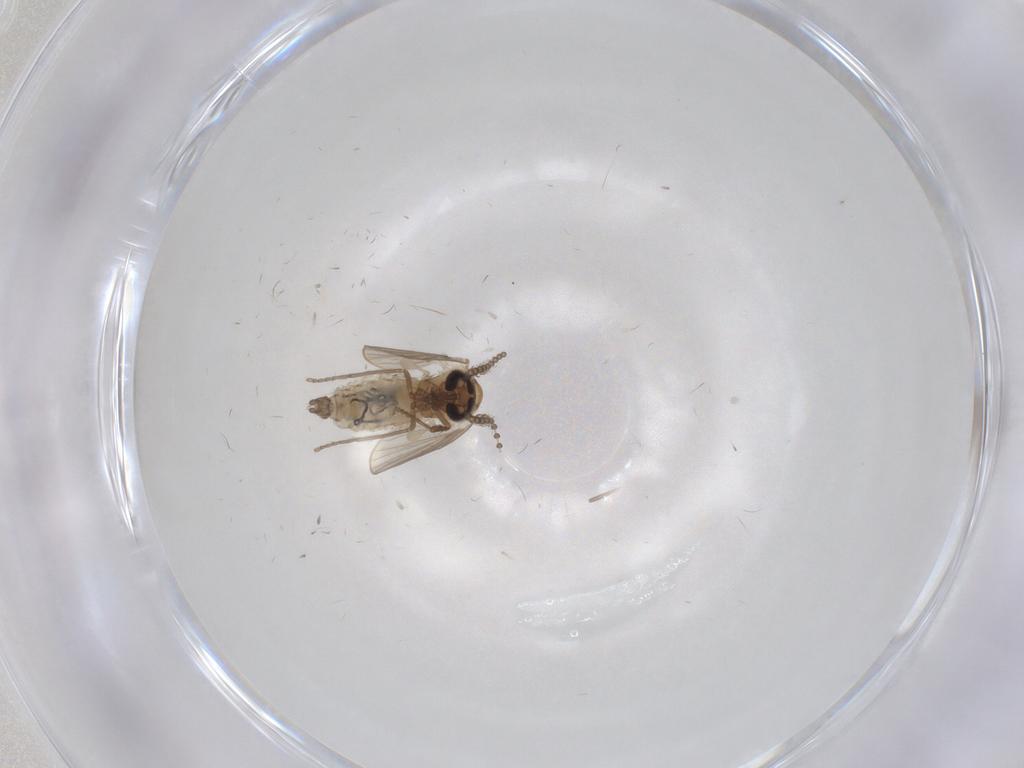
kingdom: Animalia
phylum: Arthropoda
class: Insecta
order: Diptera
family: Psychodidae
